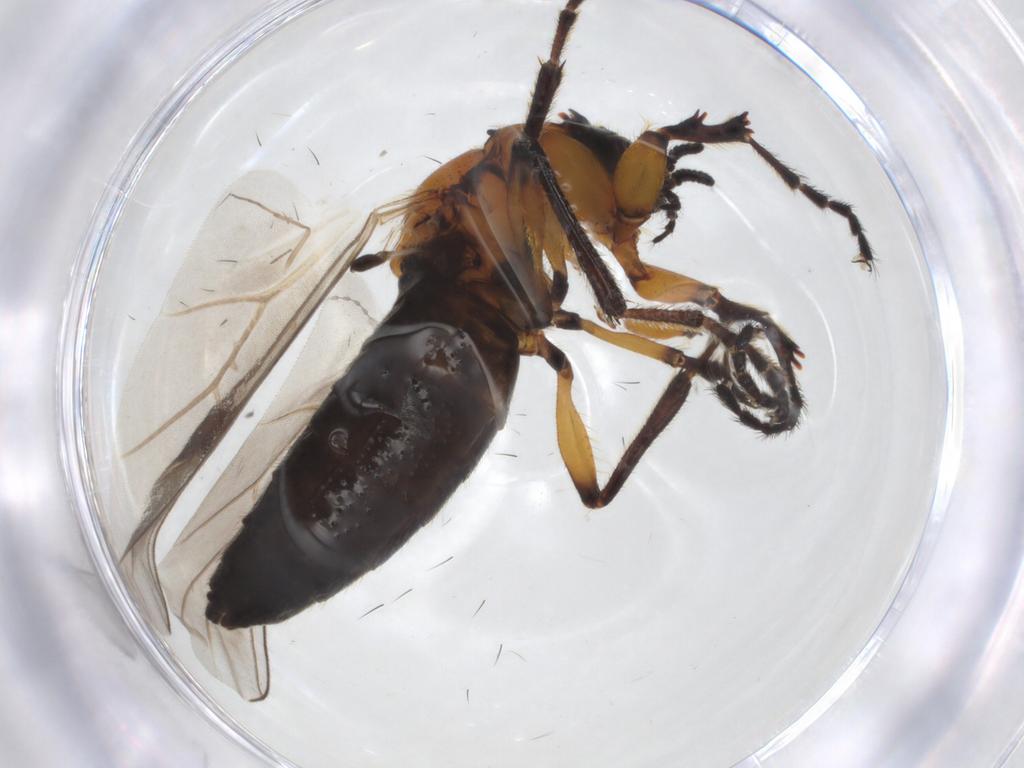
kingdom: Animalia
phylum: Arthropoda
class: Insecta
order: Diptera
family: Bibionidae
